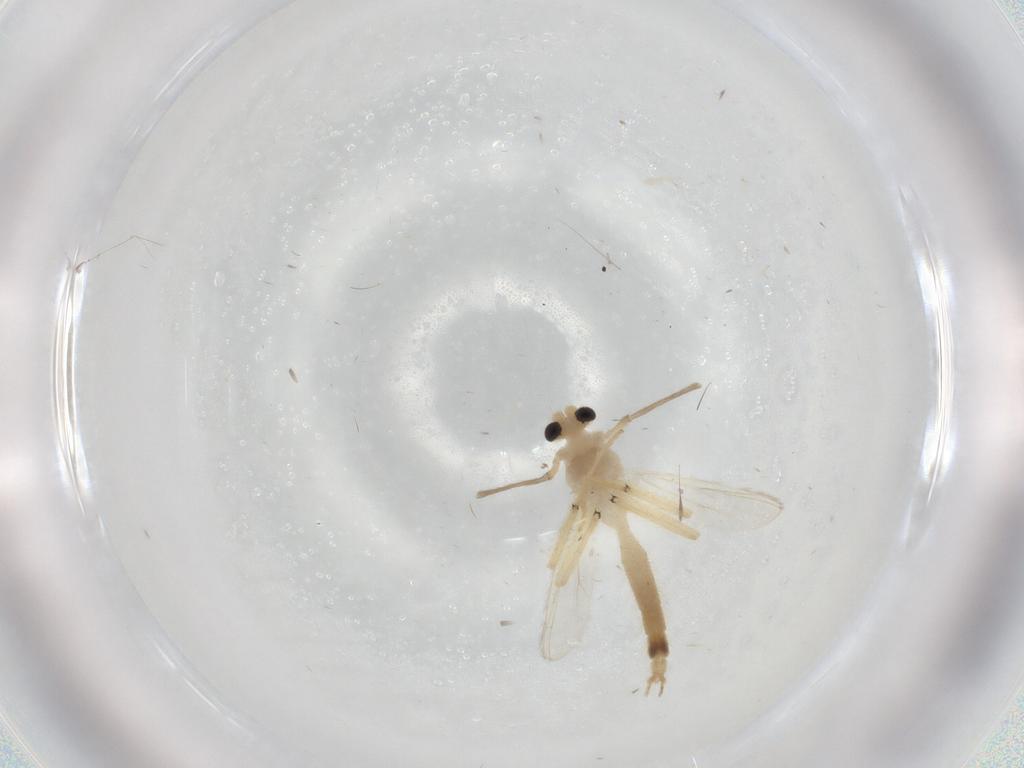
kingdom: Animalia
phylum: Arthropoda
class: Insecta
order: Diptera
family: Chironomidae
